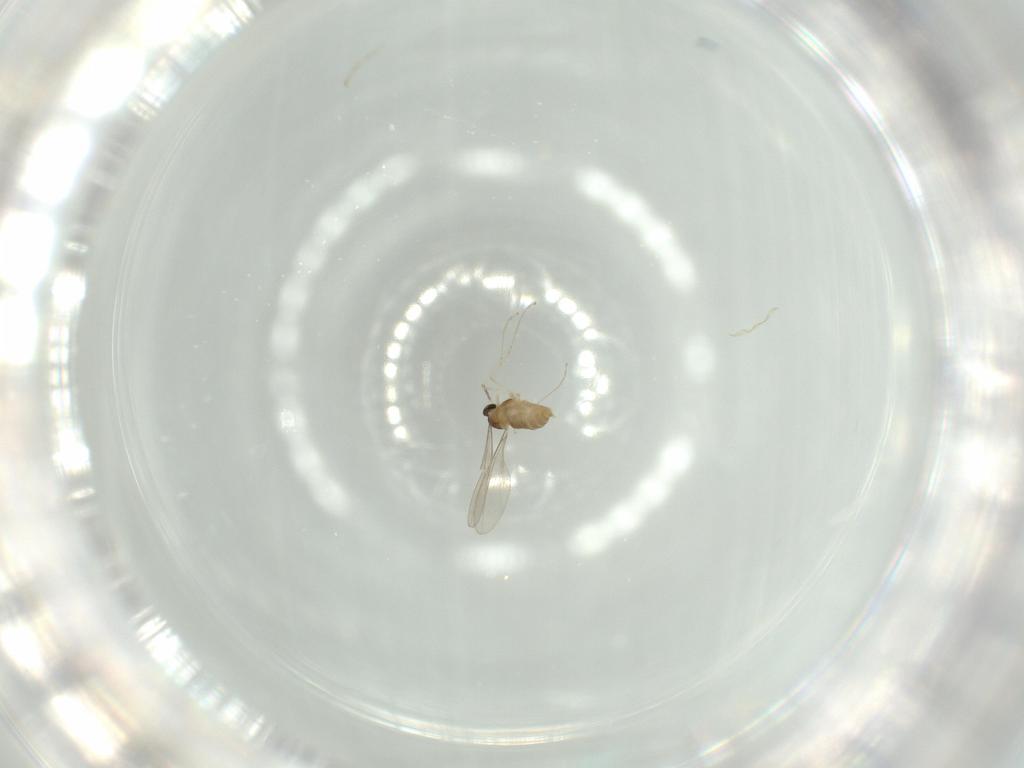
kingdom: Animalia
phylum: Arthropoda
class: Insecta
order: Diptera
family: Ceratopogonidae
